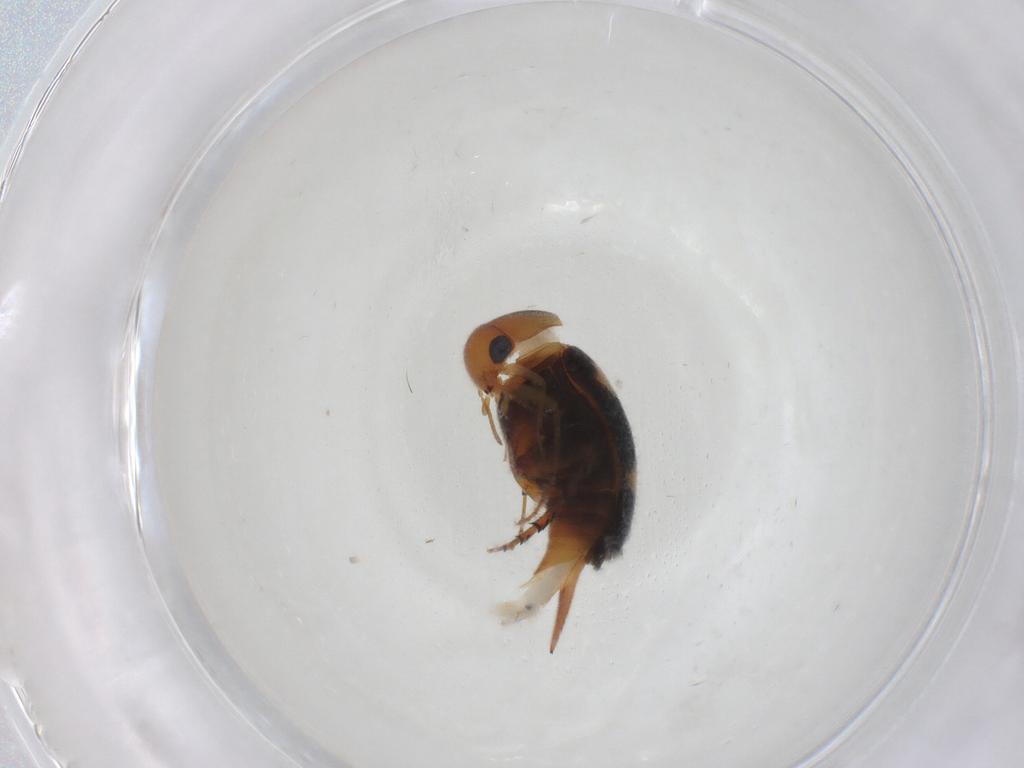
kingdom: Animalia
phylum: Arthropoda
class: Insecta
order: Coleoptera
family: Mordellidae
